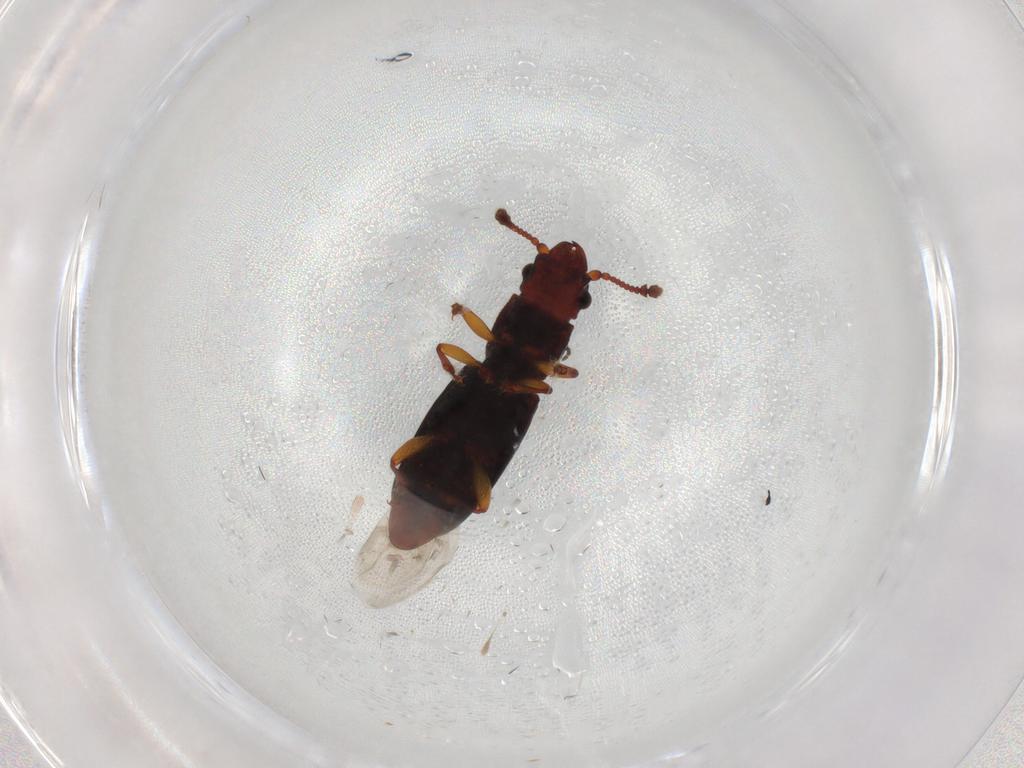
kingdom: Animalia
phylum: Arthropoda
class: Insecta
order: Coleoptera
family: Monotomidae
